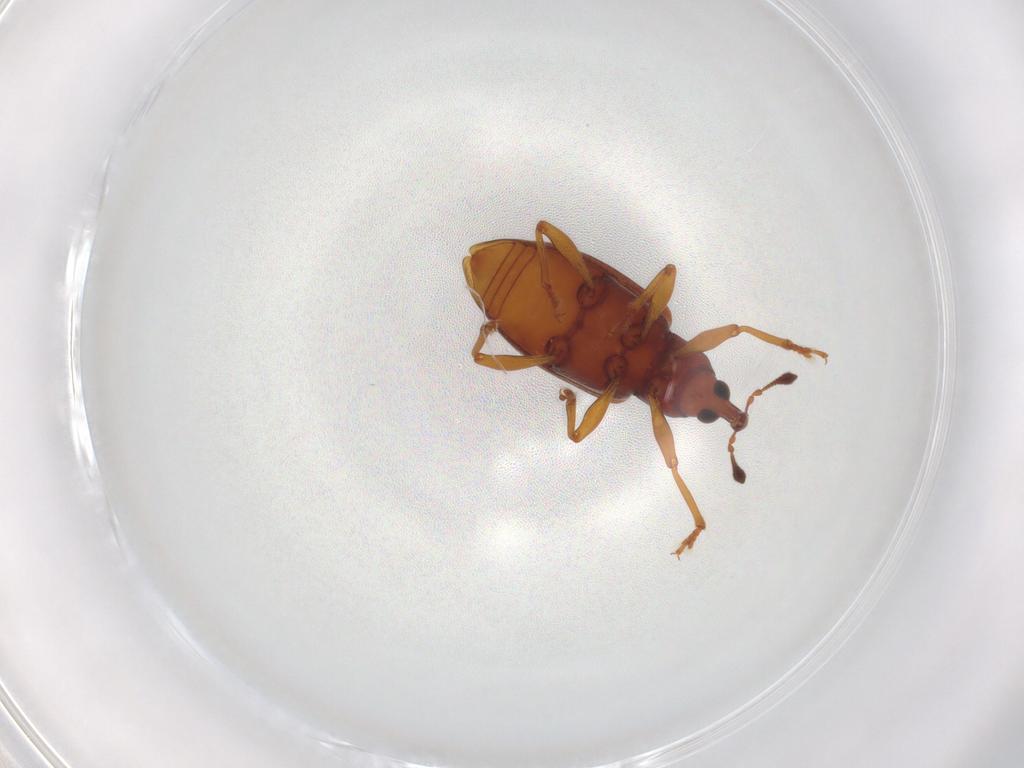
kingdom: Animalia
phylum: Arthropoda
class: Insecta
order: Coleoptera
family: Curculionidae
